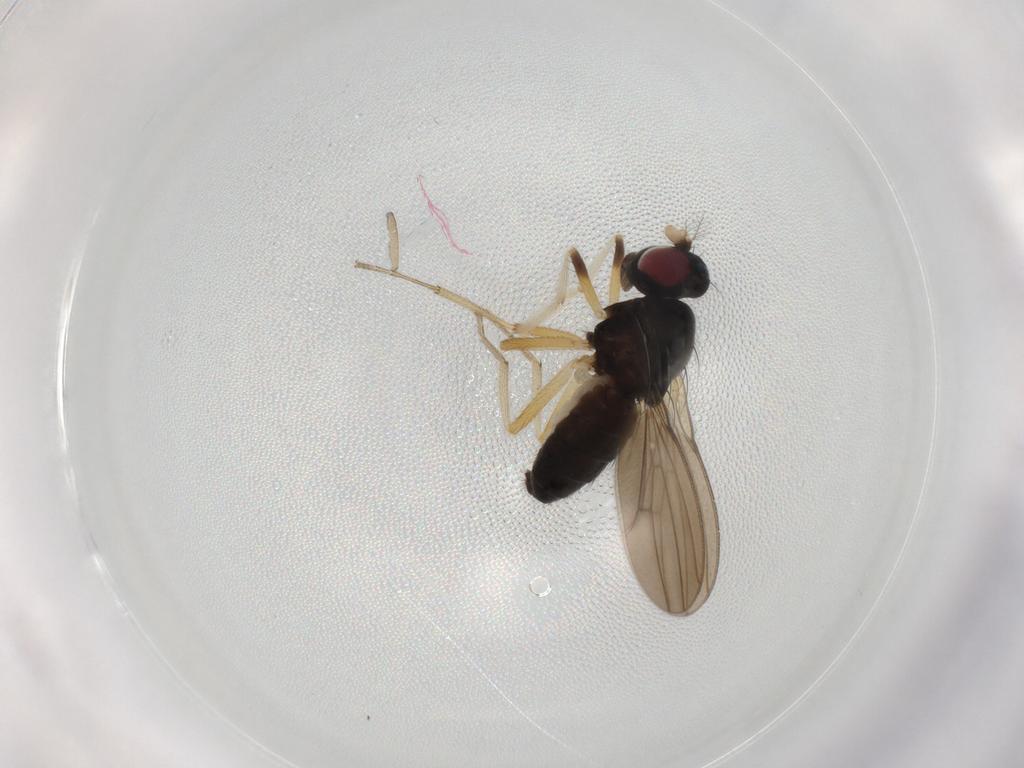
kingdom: Animalia
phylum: Arthropoda
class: Insecta
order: Diptera
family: Lauxaniidae
